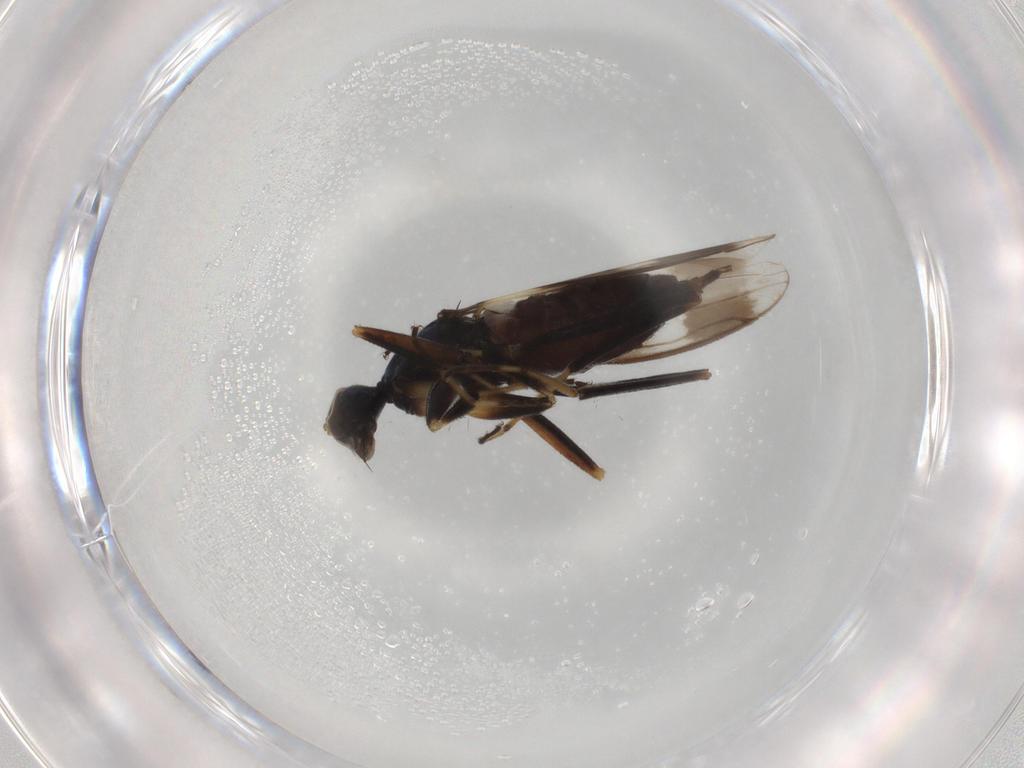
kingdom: Animalia
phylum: Arthropoda
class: Insecta
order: Diptera
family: Hybotidae
